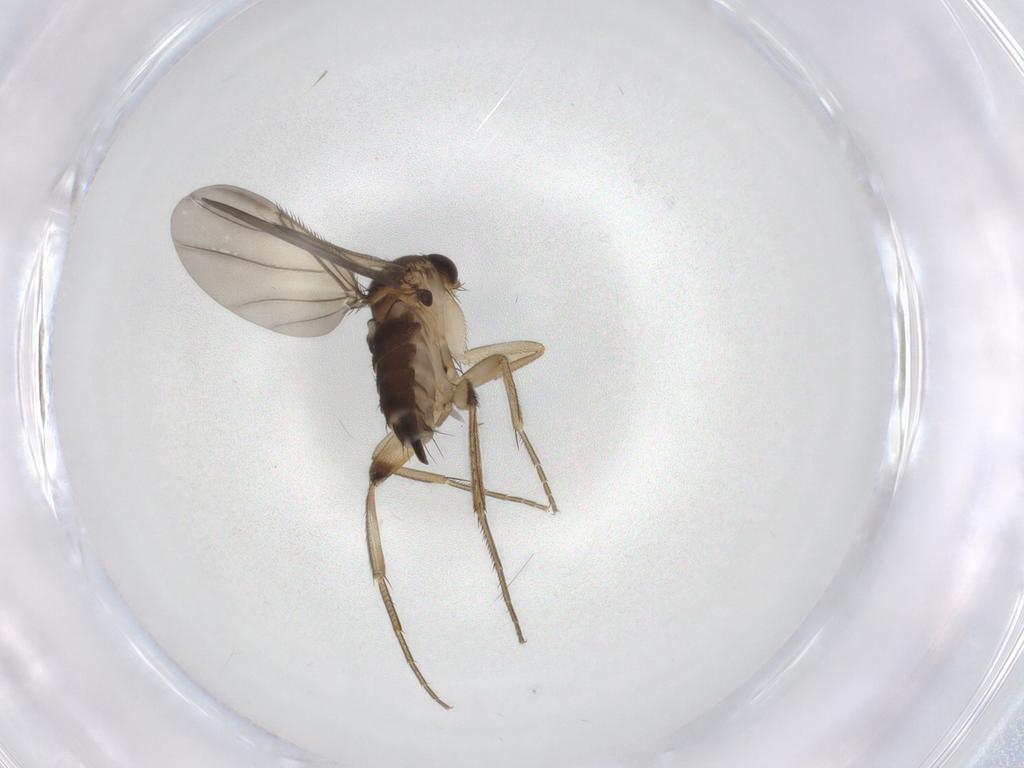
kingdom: Animalia
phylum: Arthropoda
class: Insecta
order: Diptera
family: Phoridae
